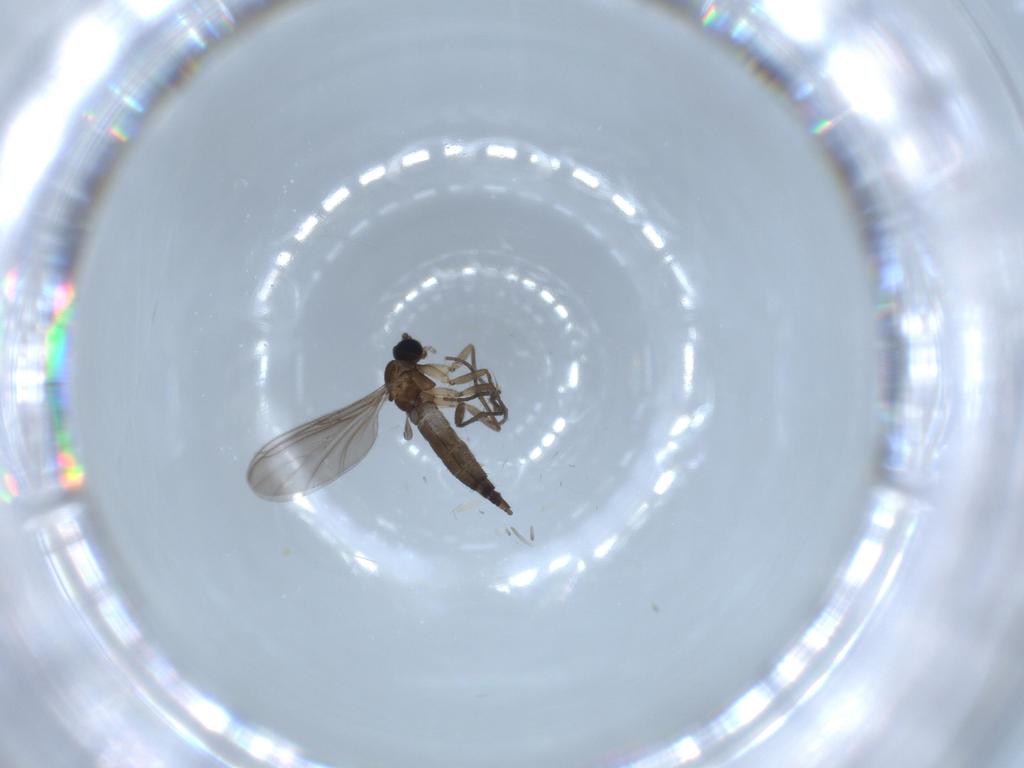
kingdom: Animalia
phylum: Arthropoda
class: Insecta
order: Diptera
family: Sciaridae
